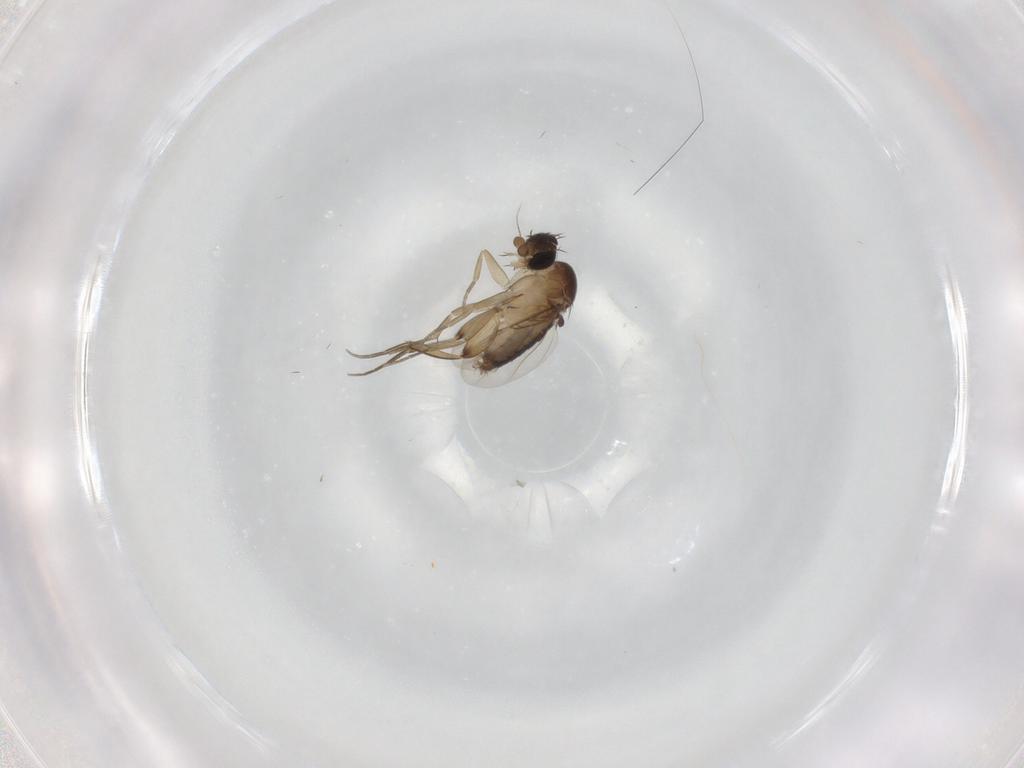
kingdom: Animalia
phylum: Arthropoda
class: Insecta
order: Diptera
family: Phoridae
